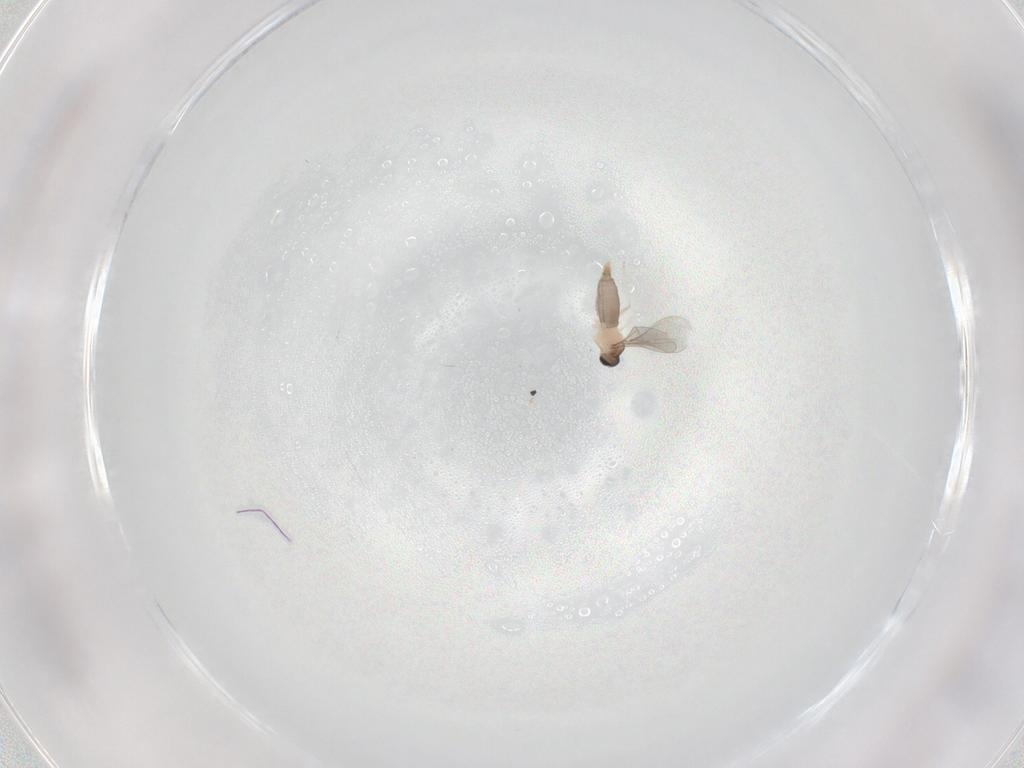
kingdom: Animalia
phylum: Arthropoda
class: Insecta
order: Diptera
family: Cecidomyiidae
